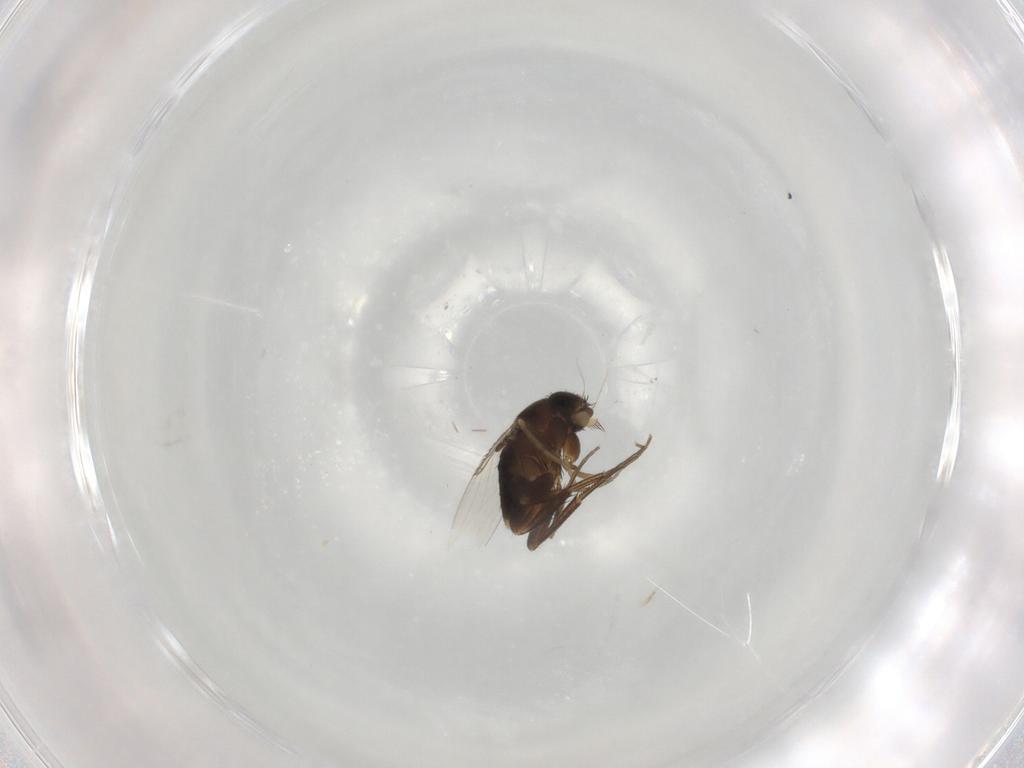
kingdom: Animalia
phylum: Arthropoda
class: Insecta
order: Diptera
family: Phoridae
